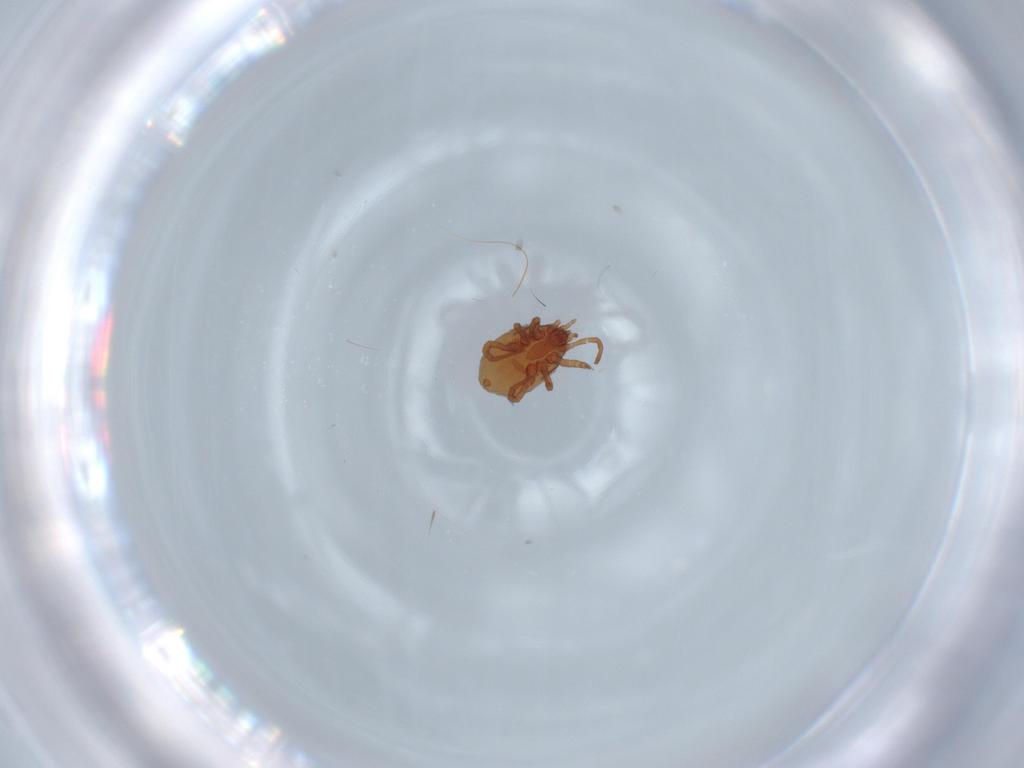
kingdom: Animalia
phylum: Arthropoda
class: Arachnida
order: Mesostigmata
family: Parasitidae
